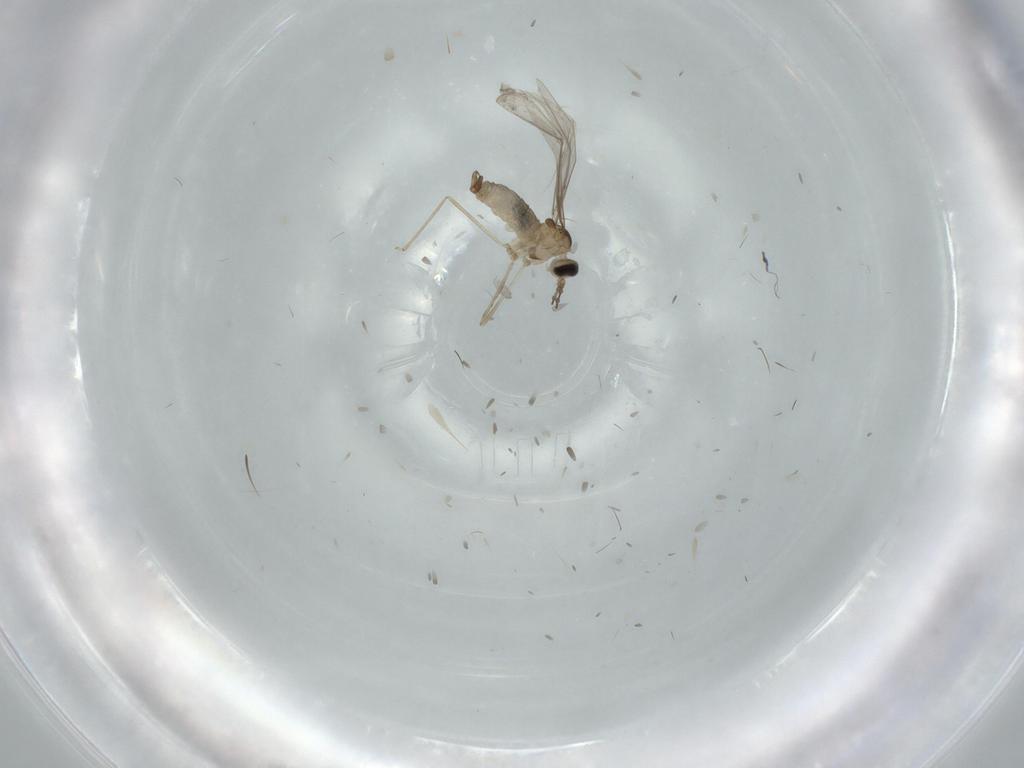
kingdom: Animalia
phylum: Arthropoda
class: Insecta
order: Diptera
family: Cecidomyiidae
